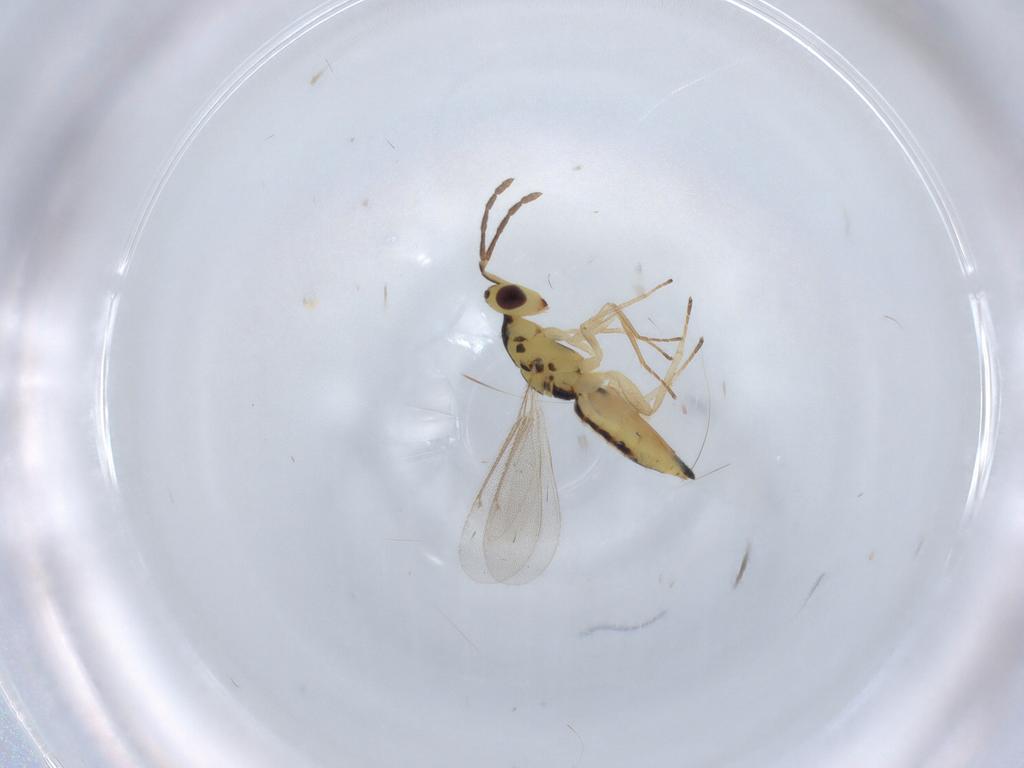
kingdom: Animalia
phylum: Arthropoda
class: Insecta
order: Hymenoptera
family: Eulophidae
